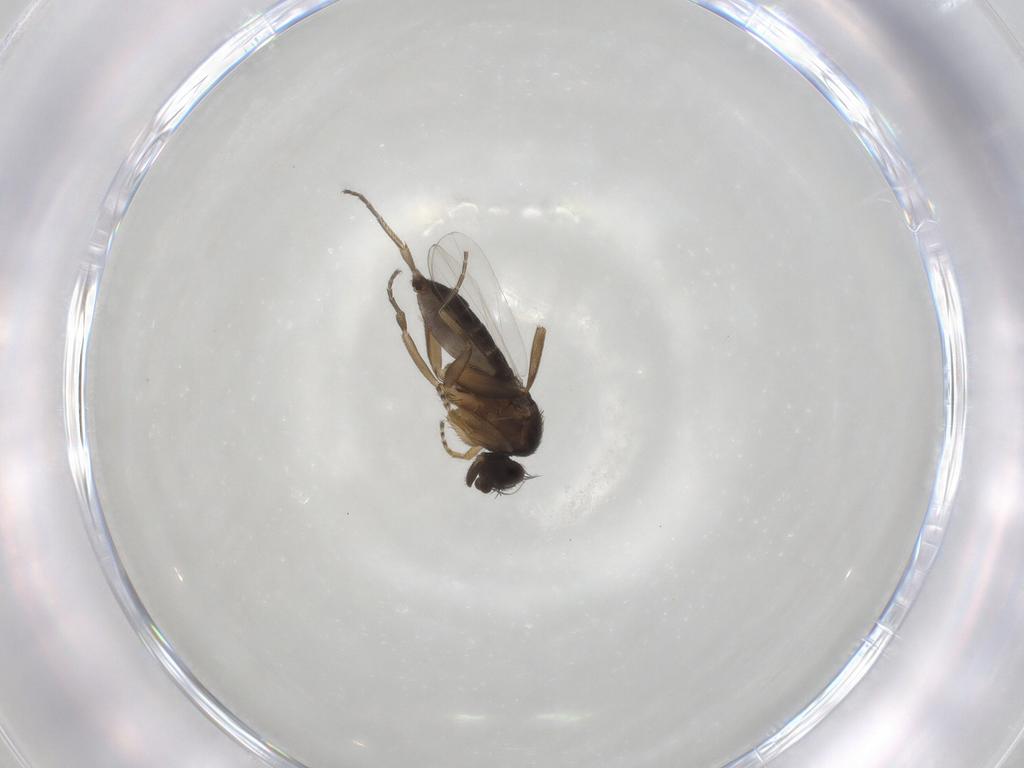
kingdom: Animalia
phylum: Arthropoda
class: Insecta
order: Diptera
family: Phoridae
